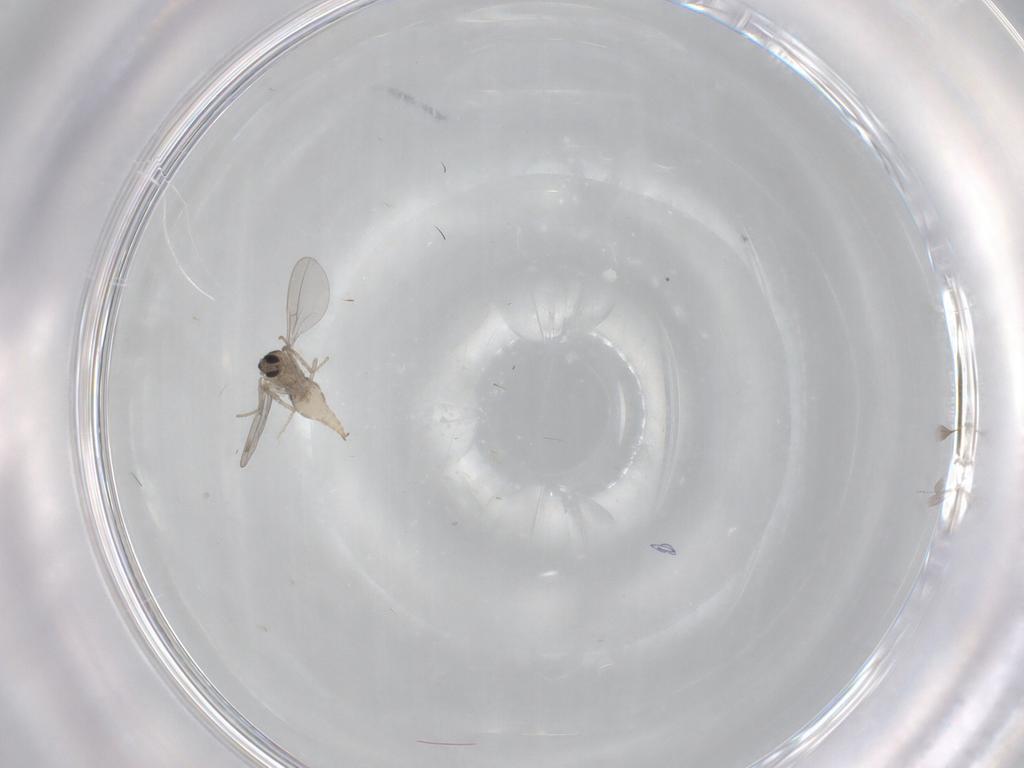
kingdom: Animalia
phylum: Arthropoda
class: Insecta
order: Diptera
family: Cecidomyiidae
